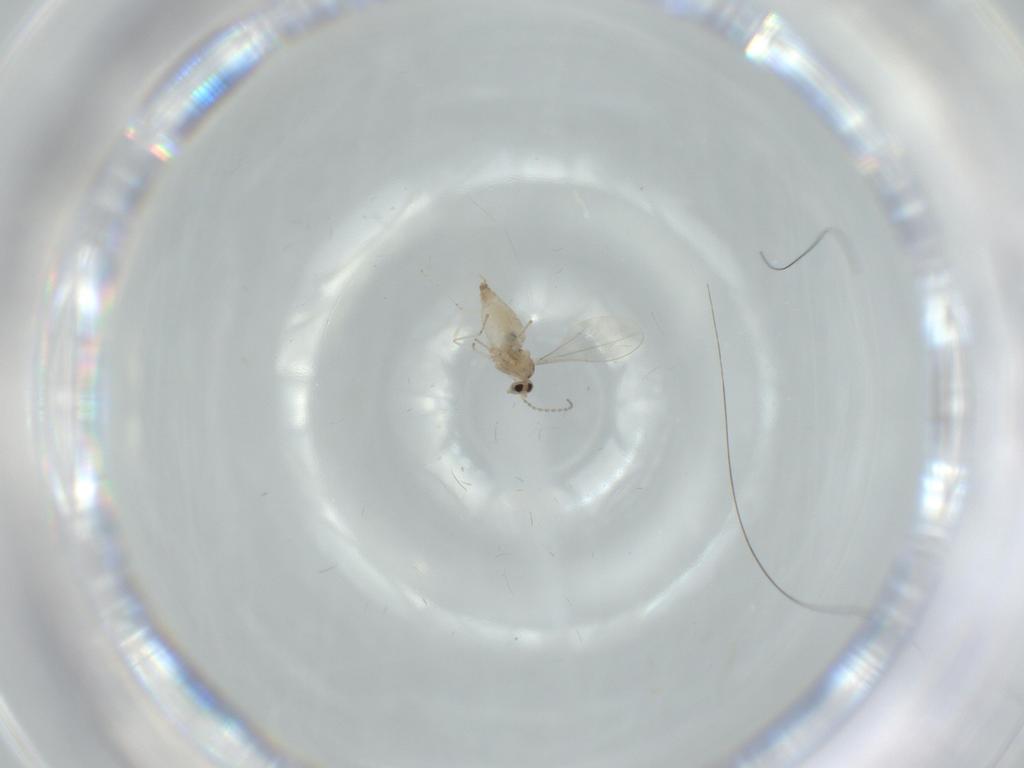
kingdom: Animalia
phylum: Arthropoda
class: Insecta
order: Diptera
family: Cecidomyiidae
